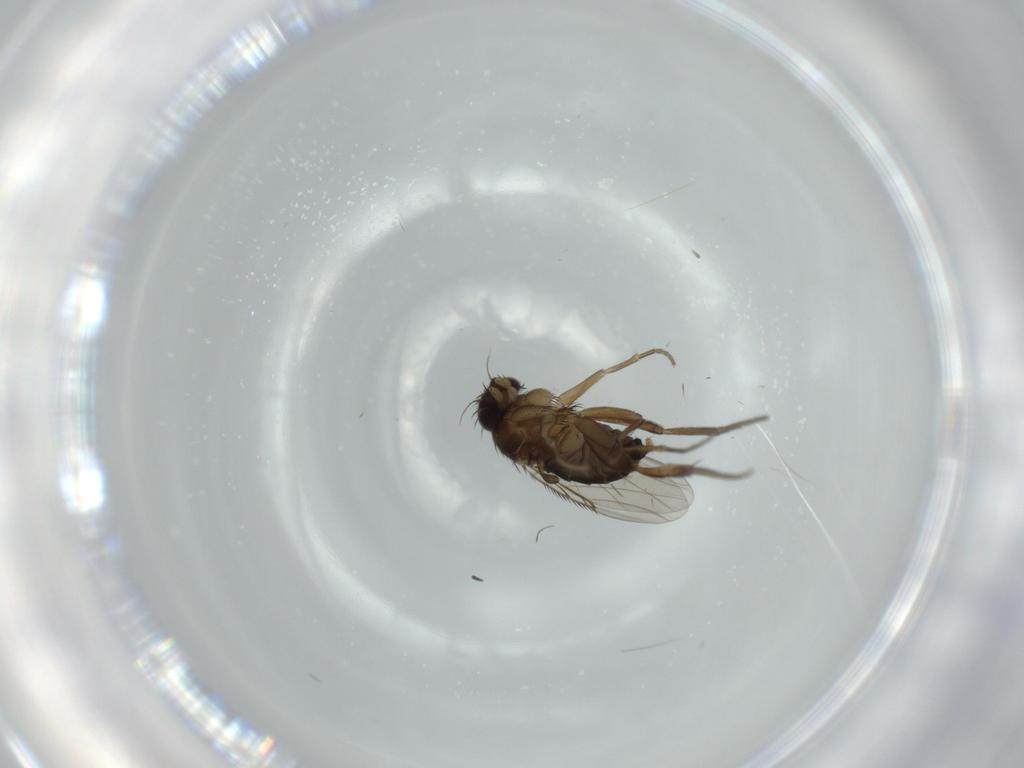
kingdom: Animalia
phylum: Arthropoda
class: Insecta
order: Diptera
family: Phoridae
